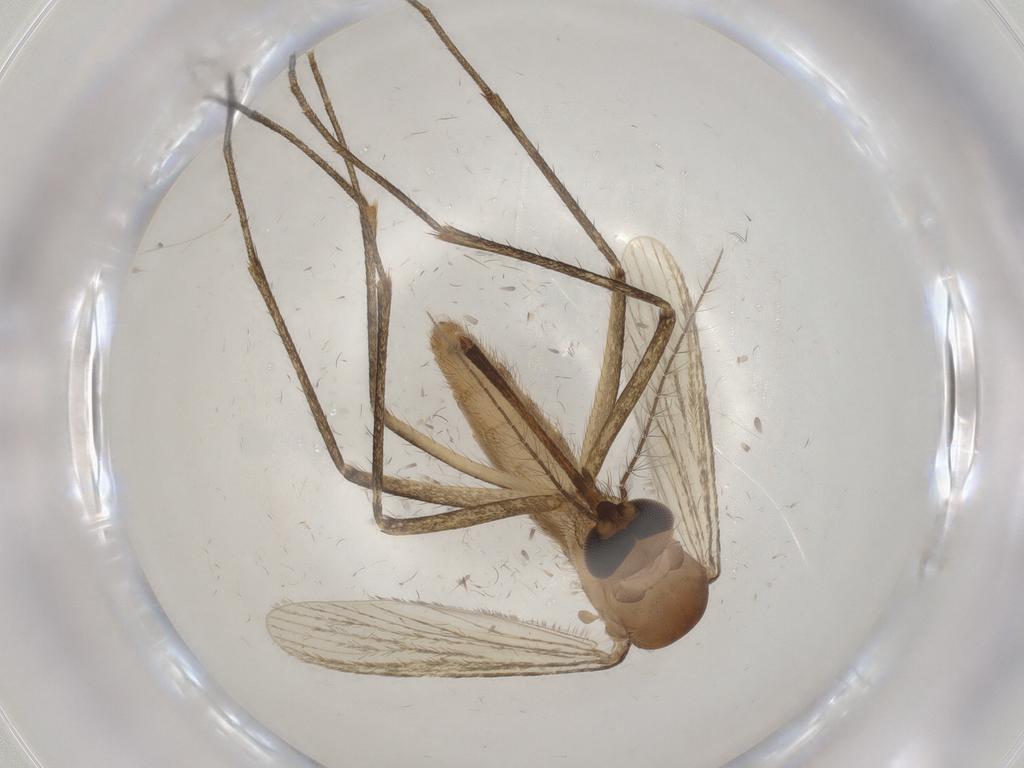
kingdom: Animalia
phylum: Arthropoda
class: Insecta
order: Diptera
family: Phoridae
